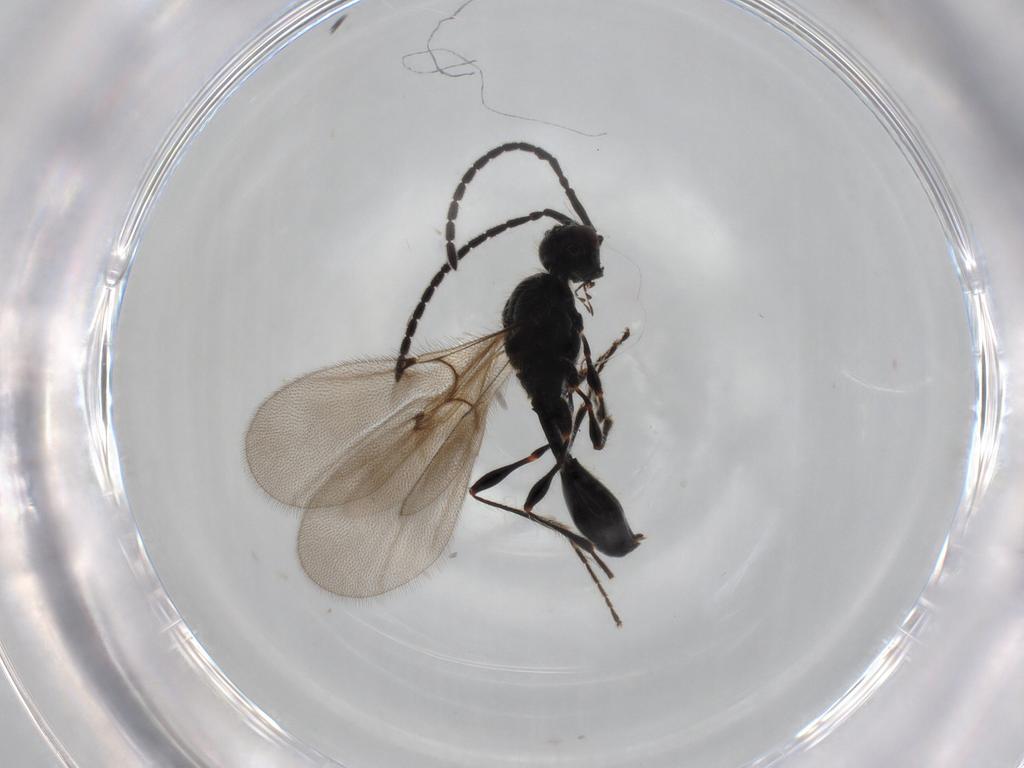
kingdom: Animalia
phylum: Arthropoda
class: Insecta
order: Hymenoptera
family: Diapriidae
